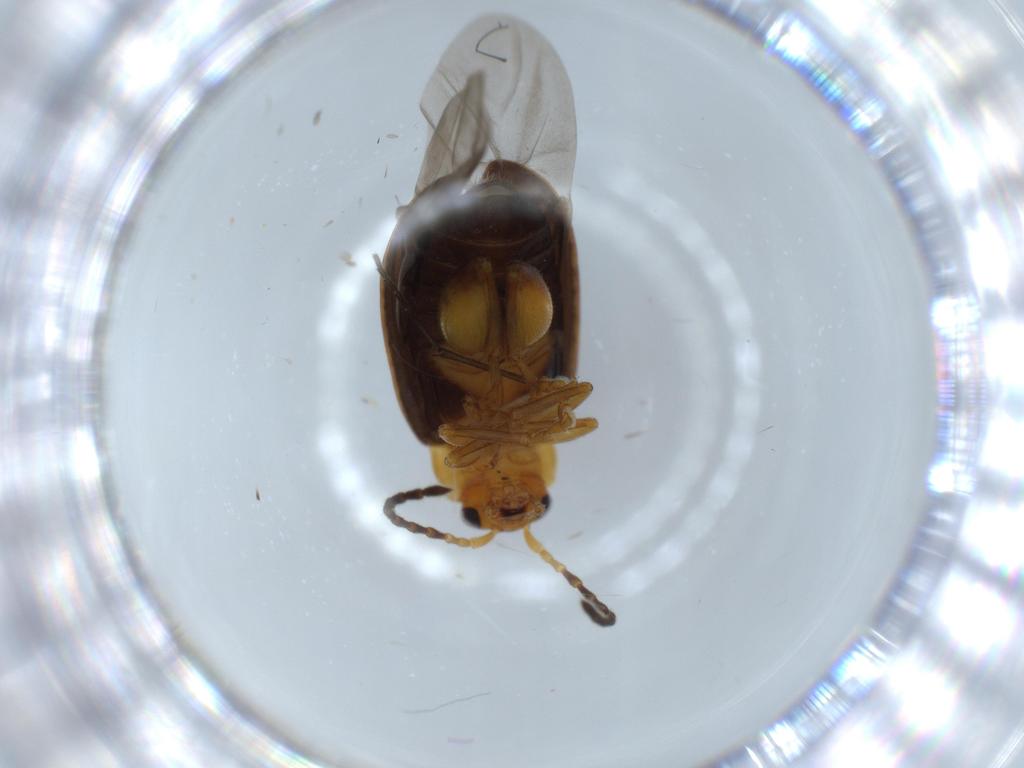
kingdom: Animalia
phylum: Arthropoda
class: Insecta
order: Coleoptera
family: Chrysomelidae
